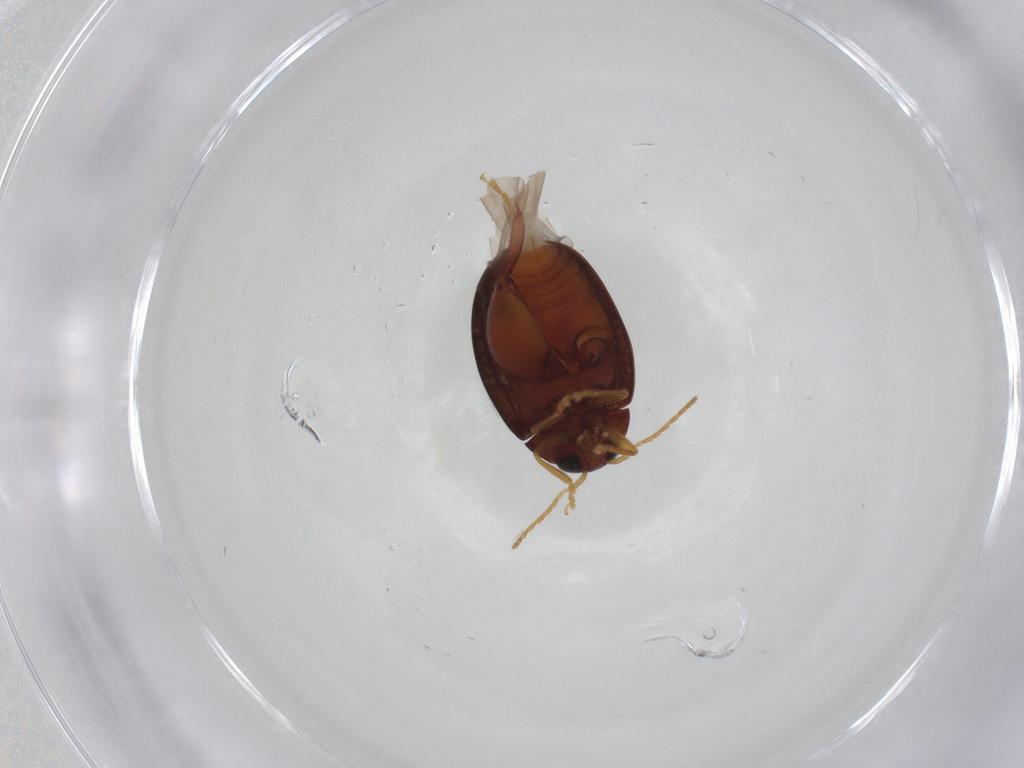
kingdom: Animalia
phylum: Arthropoda
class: Insecta
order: Coleoptera
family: Chrysomelidae
